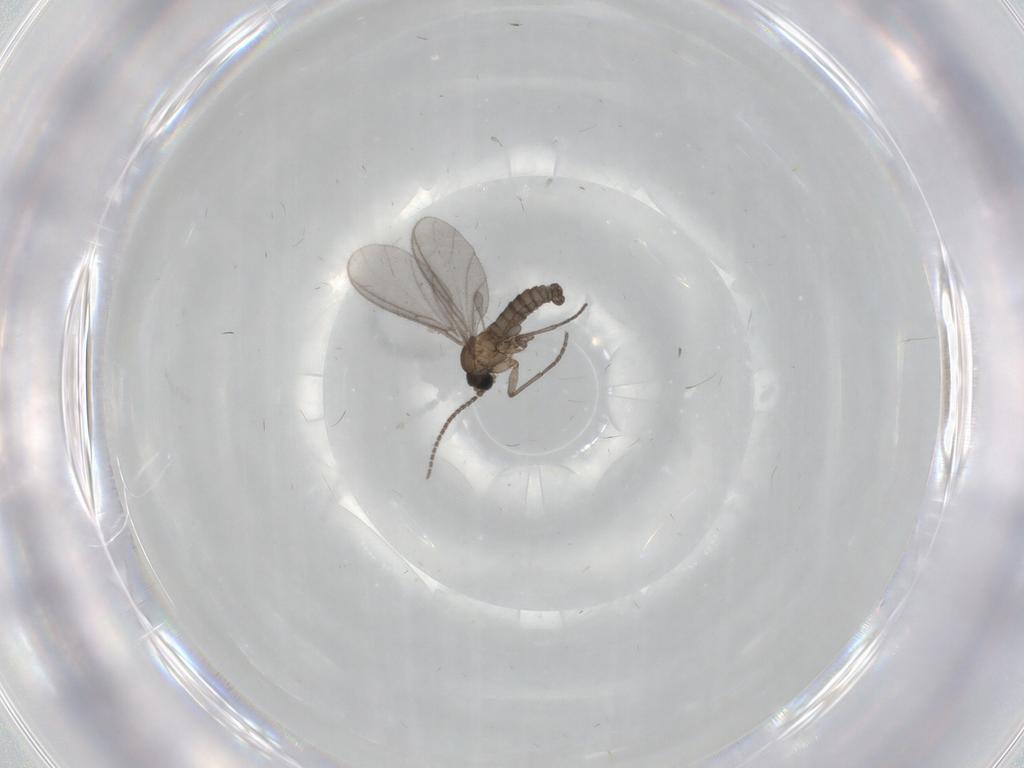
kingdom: Animalia
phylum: Arthropoda
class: Insecta
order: Diptera
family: Sciaridae
